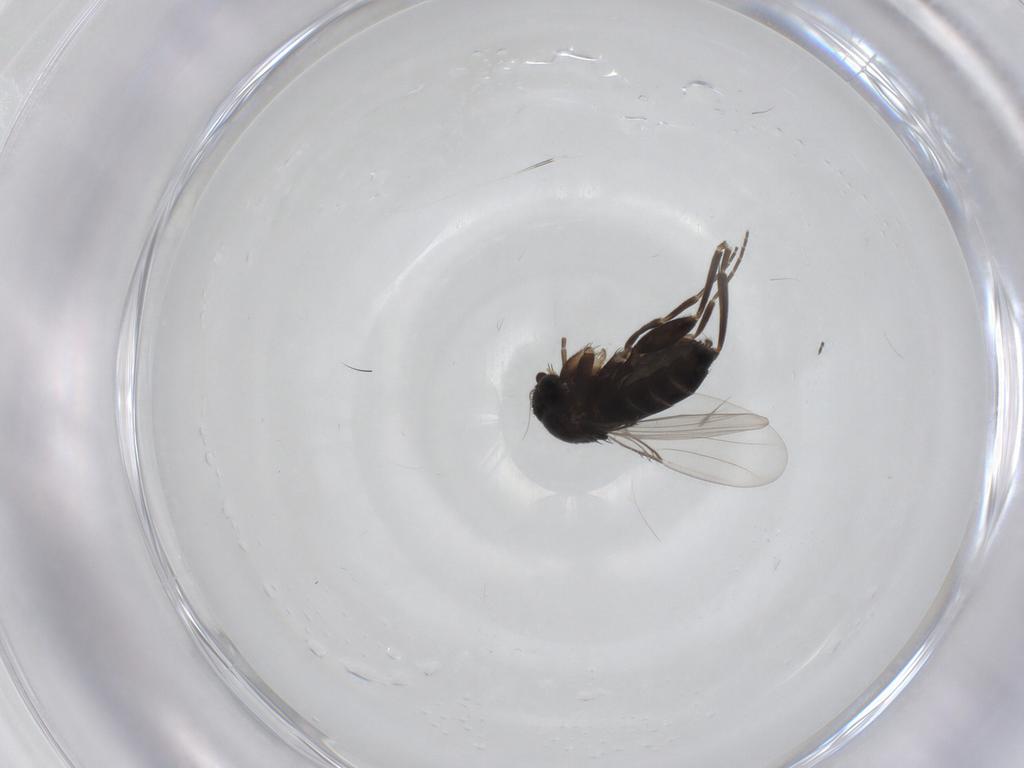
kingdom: Animalia
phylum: Arthropoda
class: Insecta
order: Diptera
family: Phoridae
